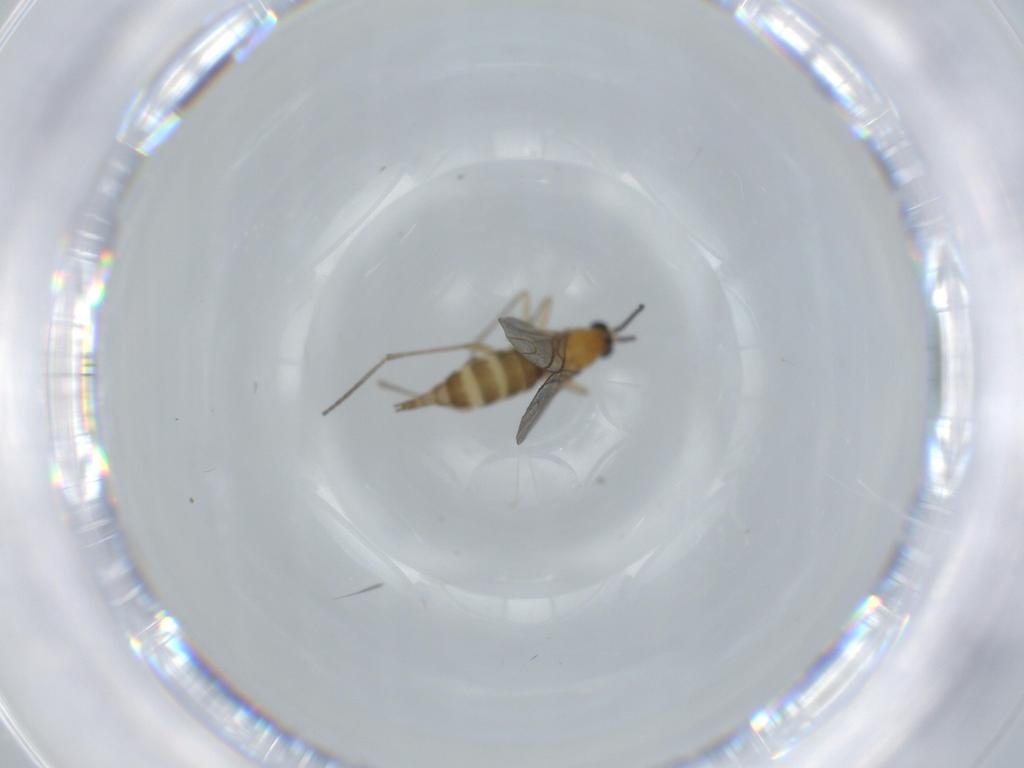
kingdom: Animalia
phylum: Arthropoda
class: Insecta
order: Diptera
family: Sciaridae
